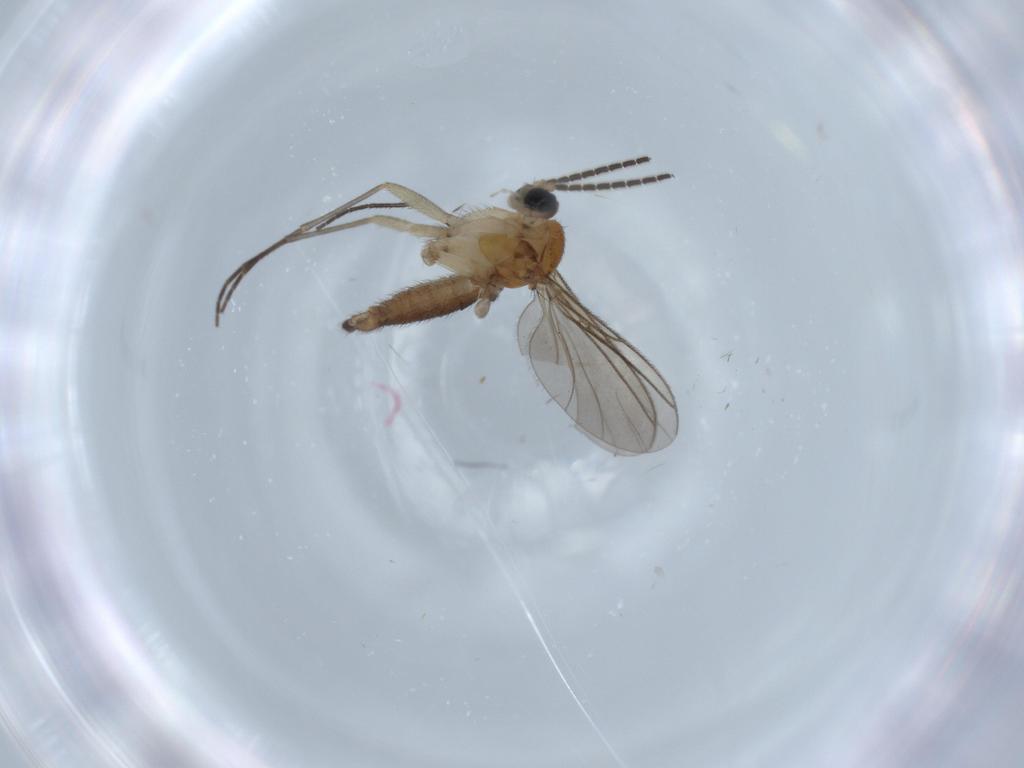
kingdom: Animalia
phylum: Arthropoda
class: Insecta
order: Diptera
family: Sciaridae
